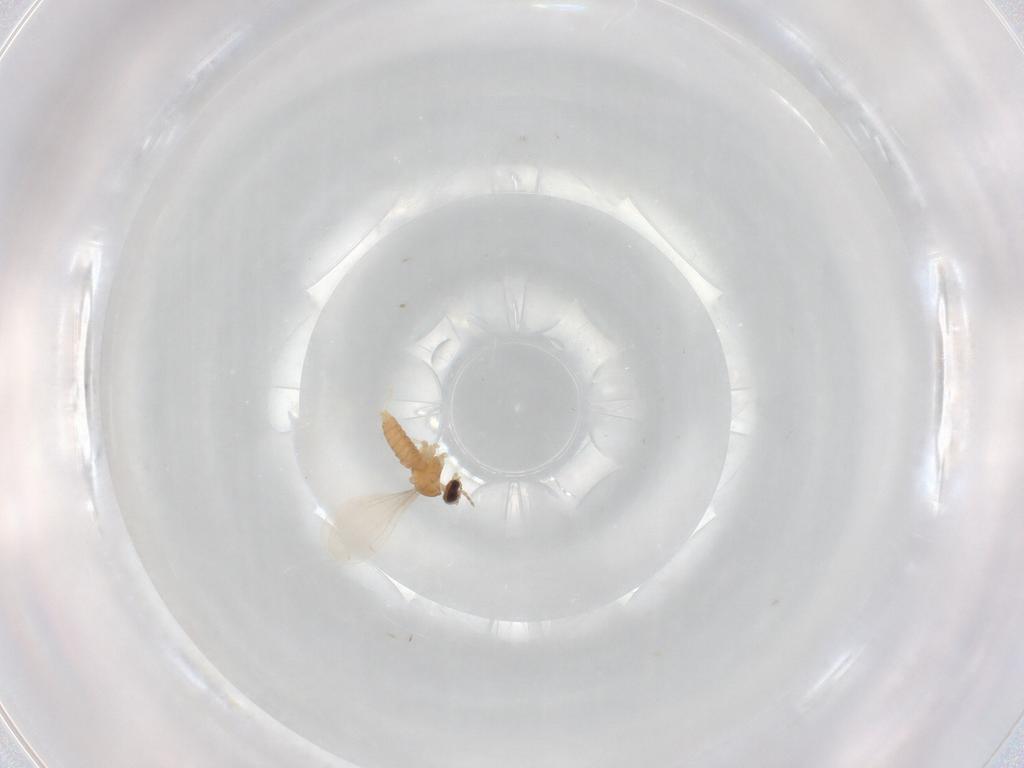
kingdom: Animalia
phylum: Arthropoda
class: Insecta
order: Diptera
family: Cecidomyiidae
